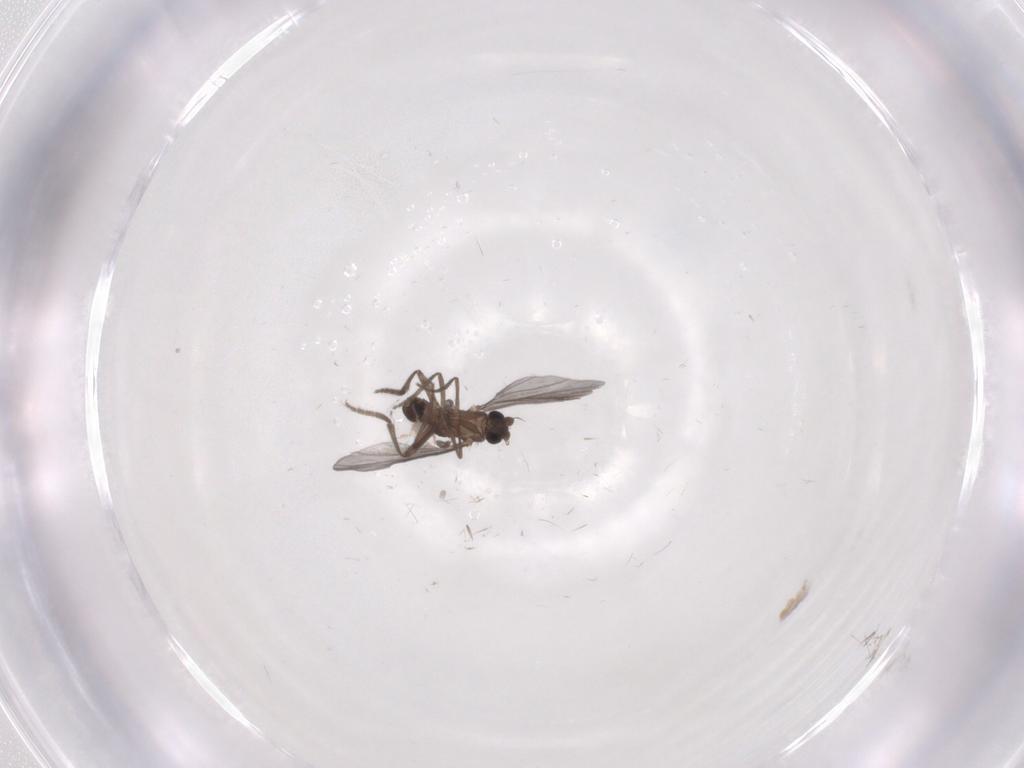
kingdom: Animalia
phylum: Arthropoda
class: Insecta
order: Diptera
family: Phoridae
